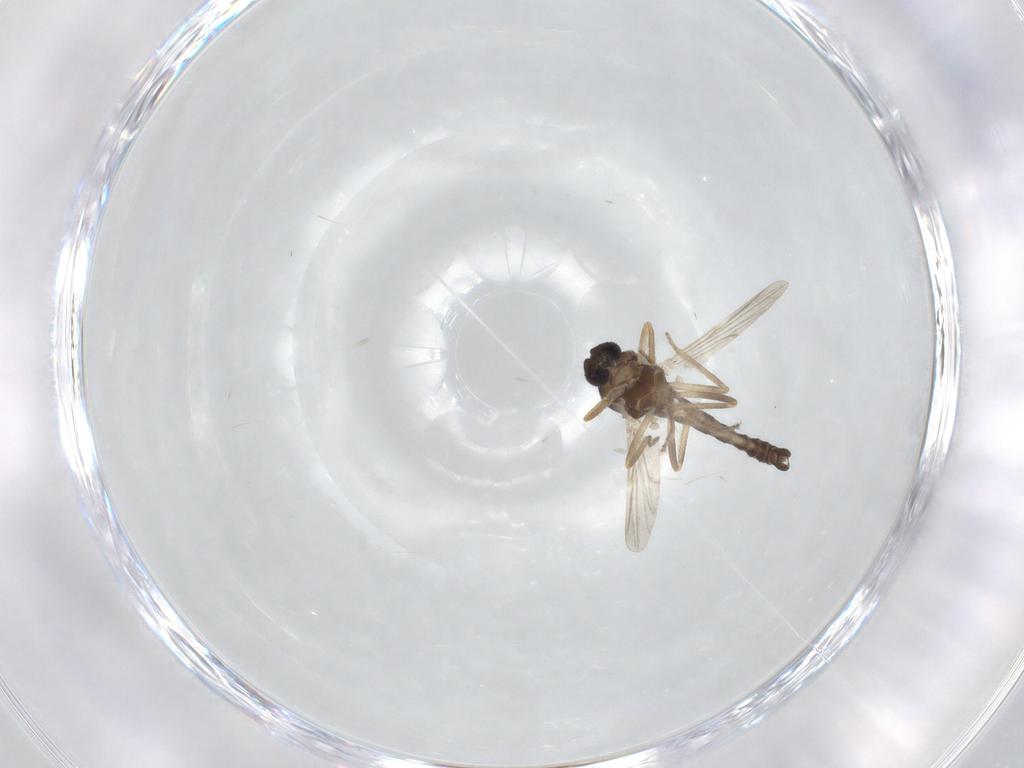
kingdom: Animalia
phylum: Arthropoda
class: Insecta
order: Diptera
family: Ceratopogonidae
